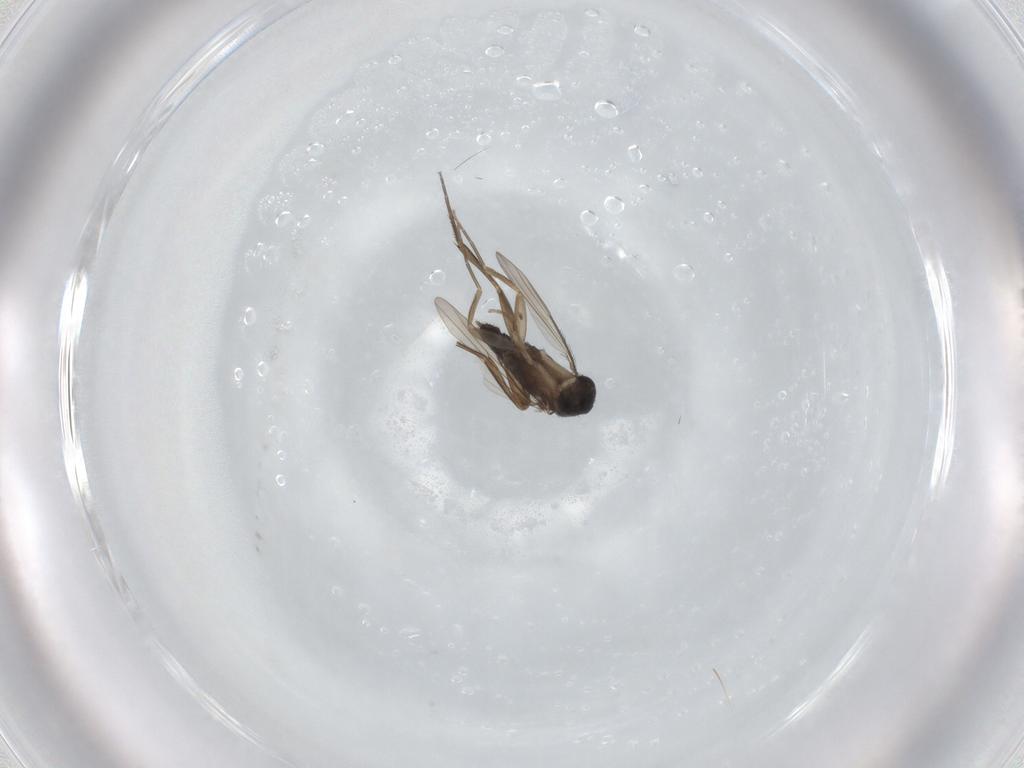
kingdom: Animalia
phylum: Arthropoda
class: Insecta
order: Diptera
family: Phoridae
